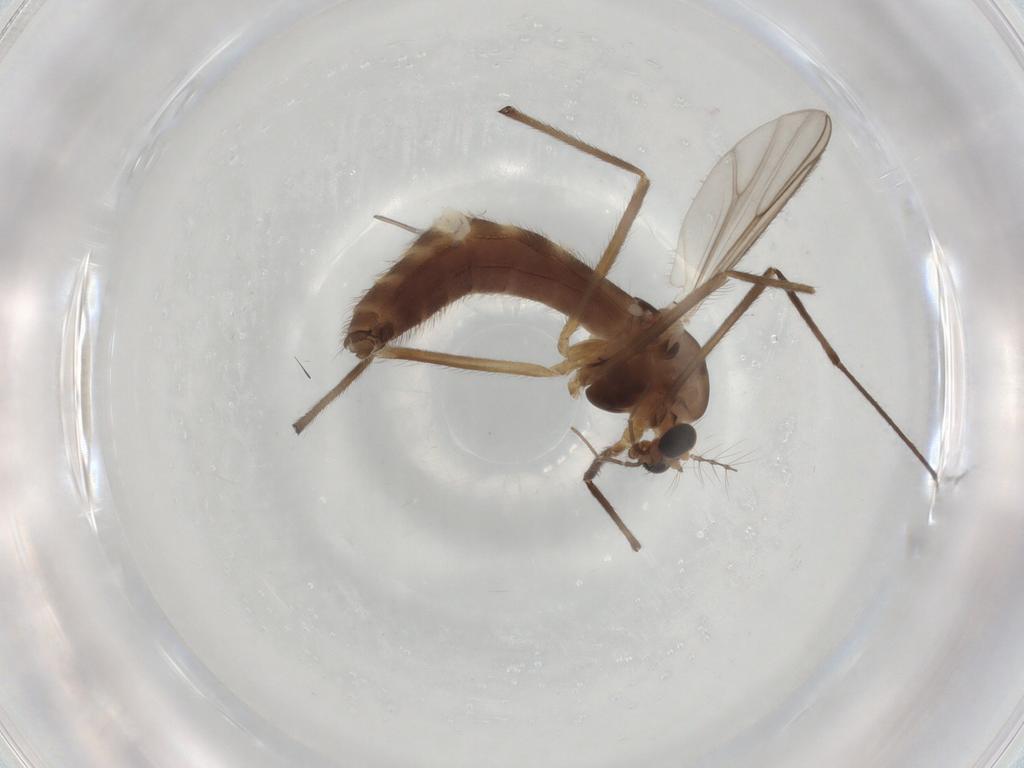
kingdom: Animalia
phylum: Arthropoda
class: Insecta
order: Diptera
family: Chironomidae
